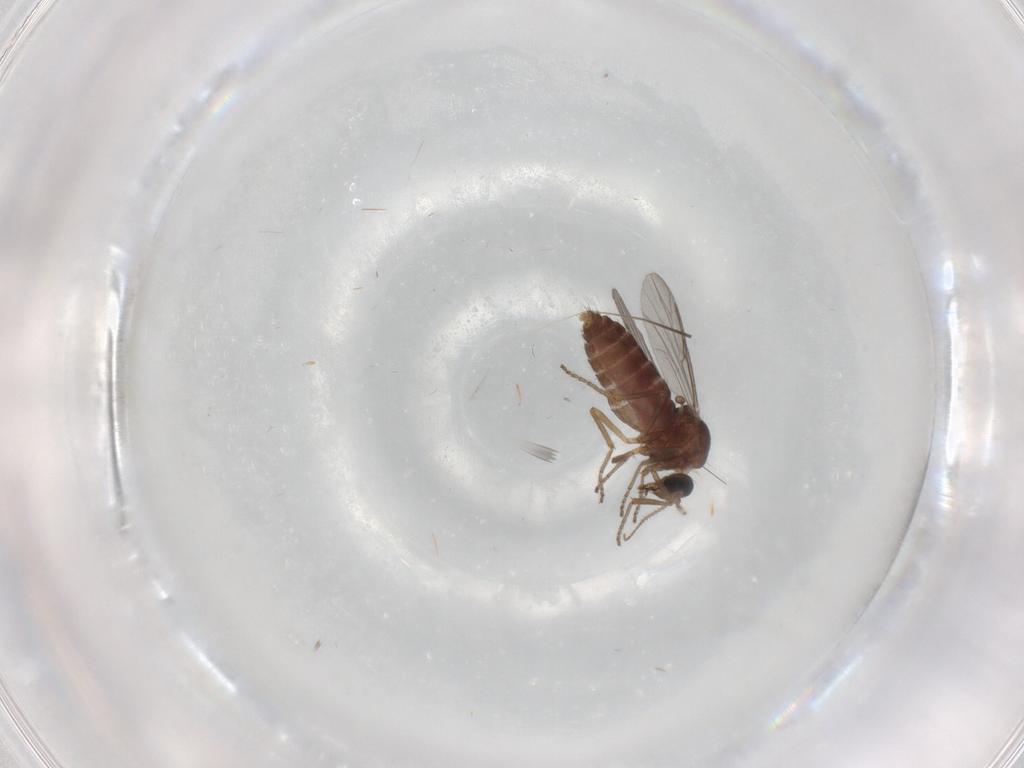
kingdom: Animalia
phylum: Arthropoda
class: Insecta
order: Diptera
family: Ceratopogonidae
